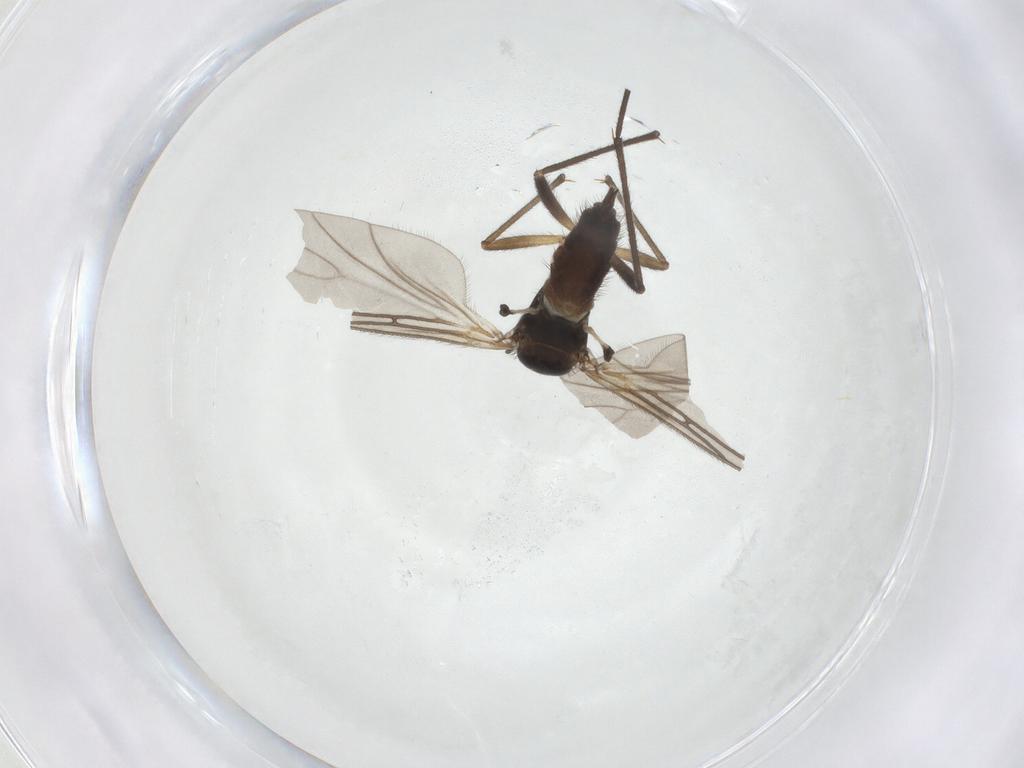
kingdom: Animalia
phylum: Arthropoda
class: Insecta
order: Diptera
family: Sciaridae
